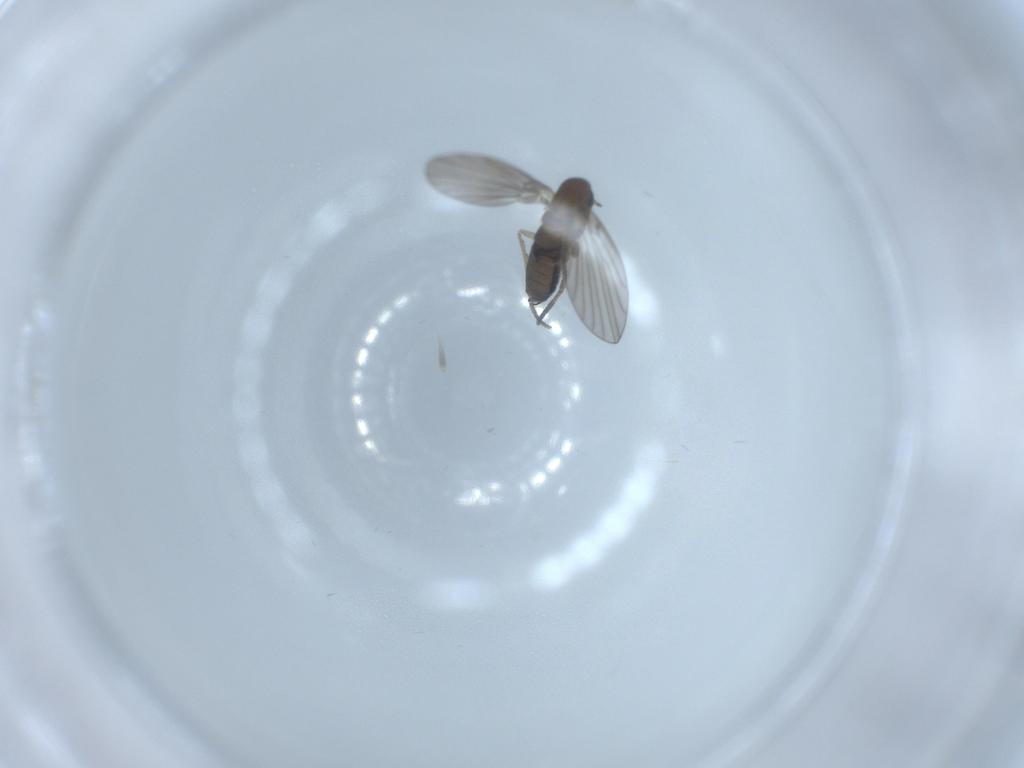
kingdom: Animalia
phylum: Arthropoda
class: Insecta
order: Diptera
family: Psychodidae
